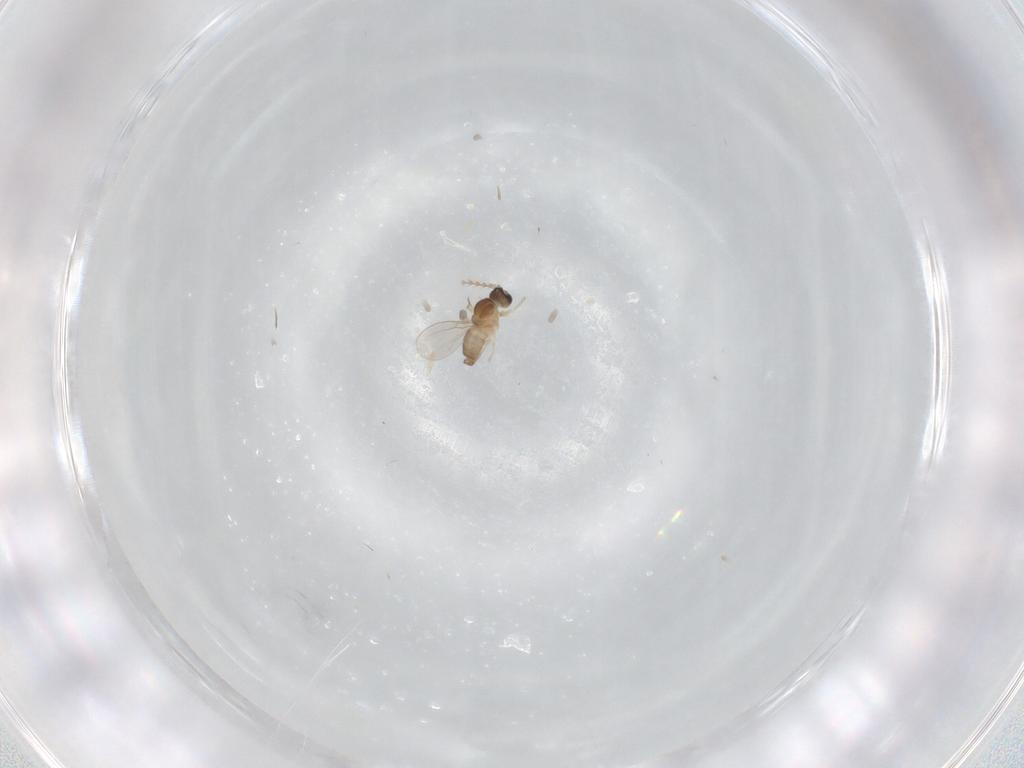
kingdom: Animalia
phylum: Arthropoda
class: Insecta
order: Diptera
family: Cecidomyiidae
